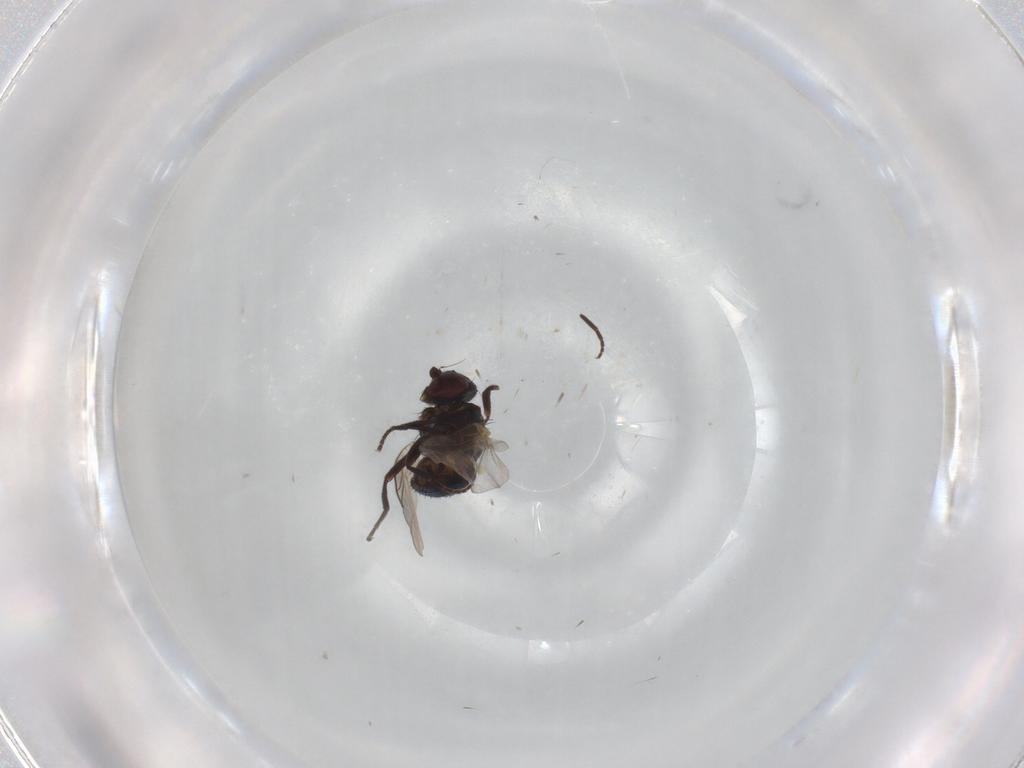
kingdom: Animalia
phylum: Arthropoda
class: Insecta
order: Diptera
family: Milichiidae
